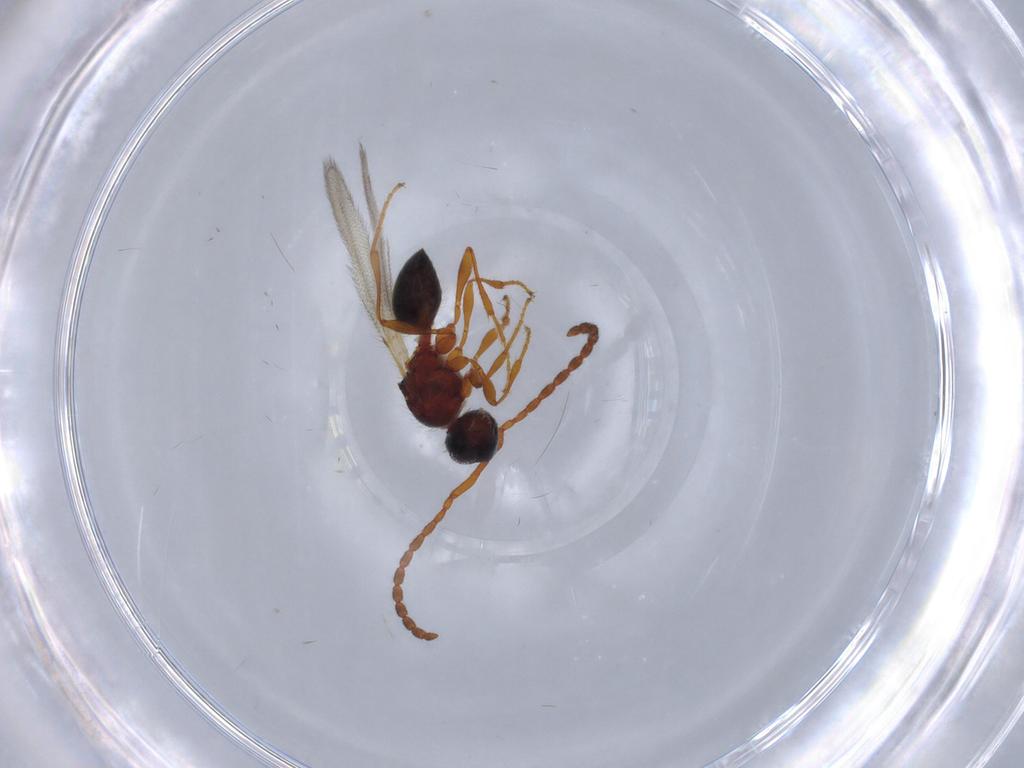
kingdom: Animalia
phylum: Arthropoda
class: Insecta
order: Hymenoptera
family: Diapriidae
